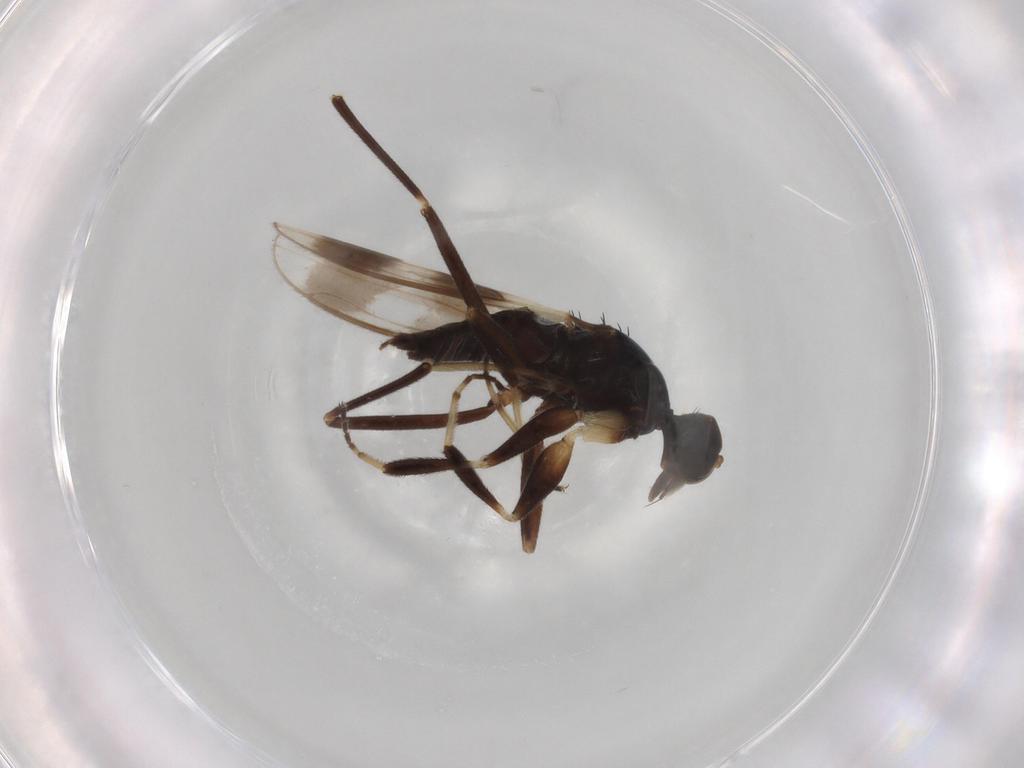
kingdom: Animalia
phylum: Arthropoda
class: Insecta
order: Diptera
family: Hybotidae
